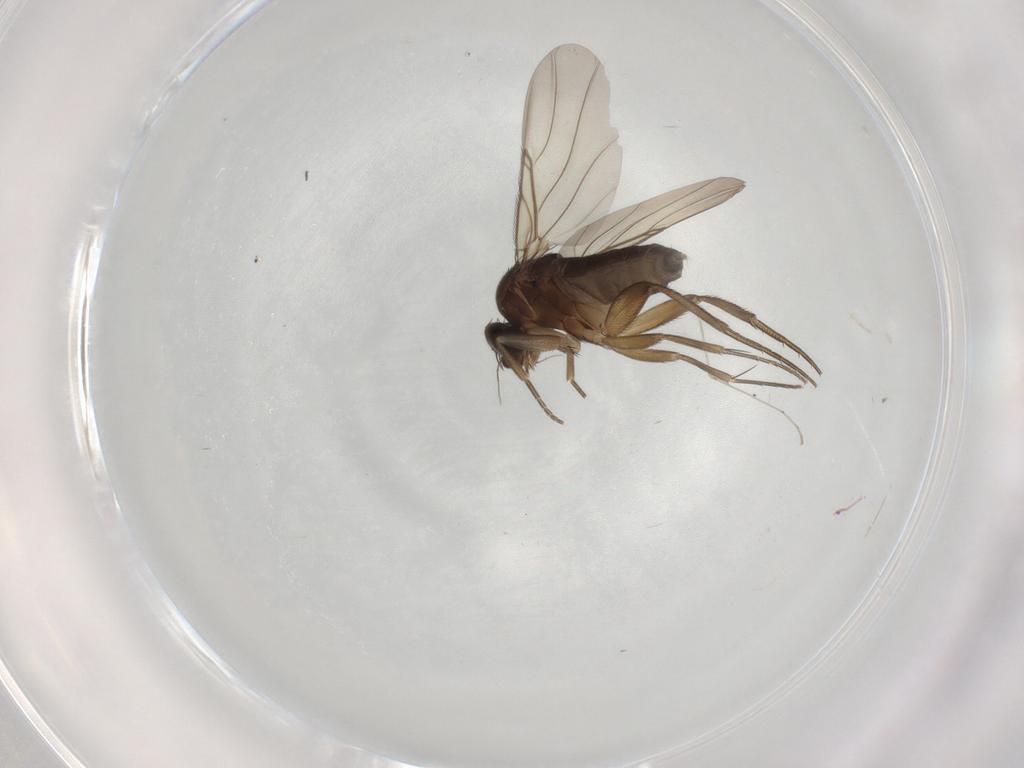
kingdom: Animalia
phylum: Arthropoda
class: Insecta
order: Diptera
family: Phoridae
